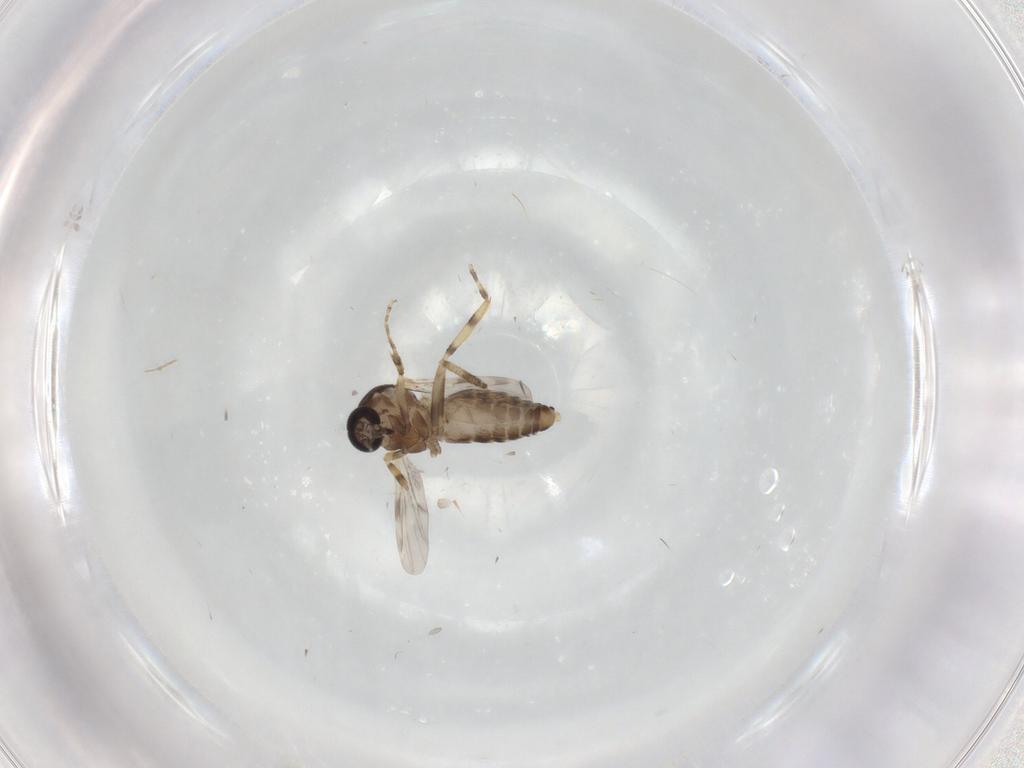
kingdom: Animalia
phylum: Arthropoda
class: Insecta
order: Diptera
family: Ceratopogonidae
